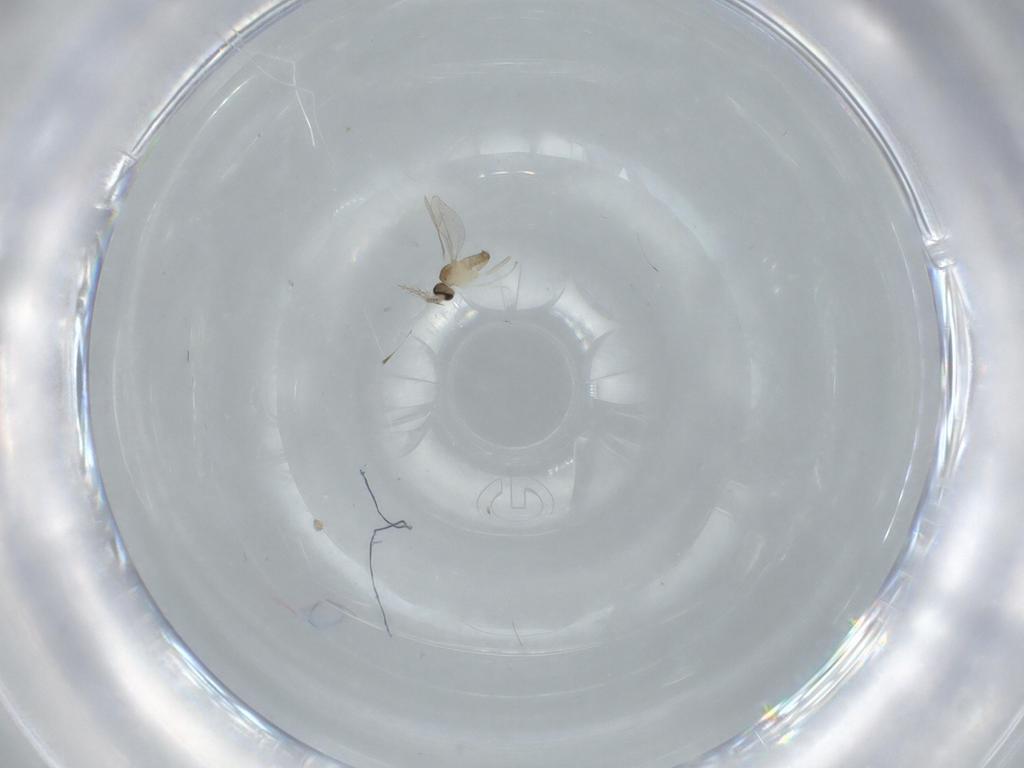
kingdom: Animalia
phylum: Arthropoda
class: Insecta
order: Diptera
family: Cecidomyiidae
